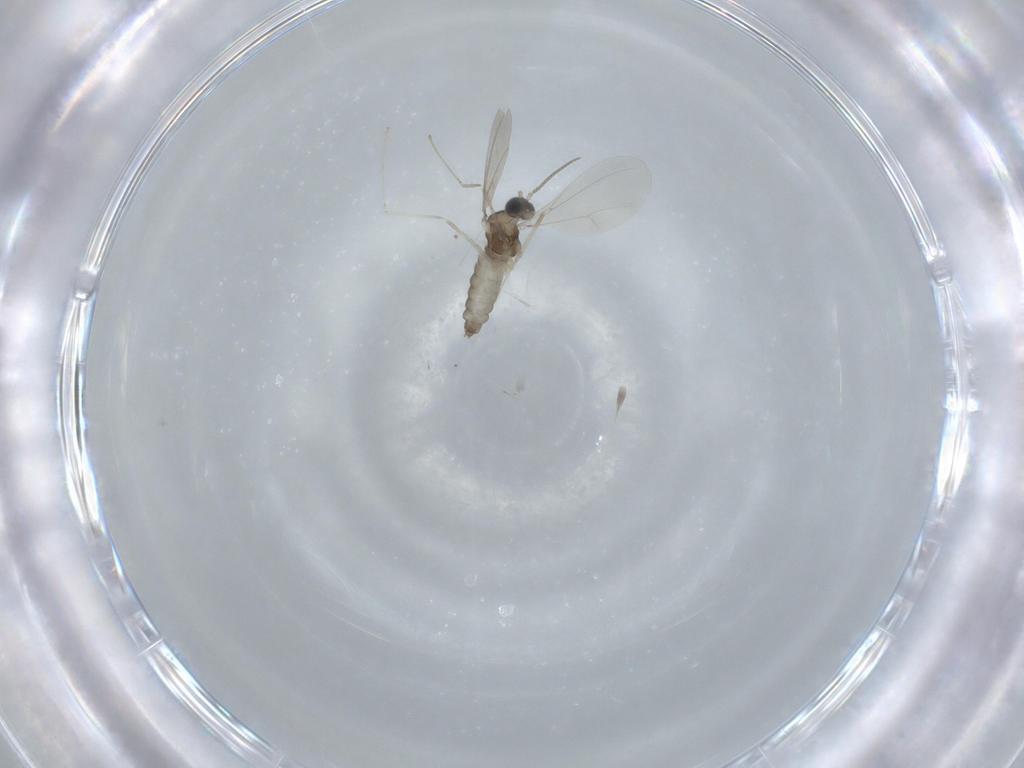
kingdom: Animalia
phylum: Arthropoda
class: Insecta
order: Diptera
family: Cecidomyiidae
